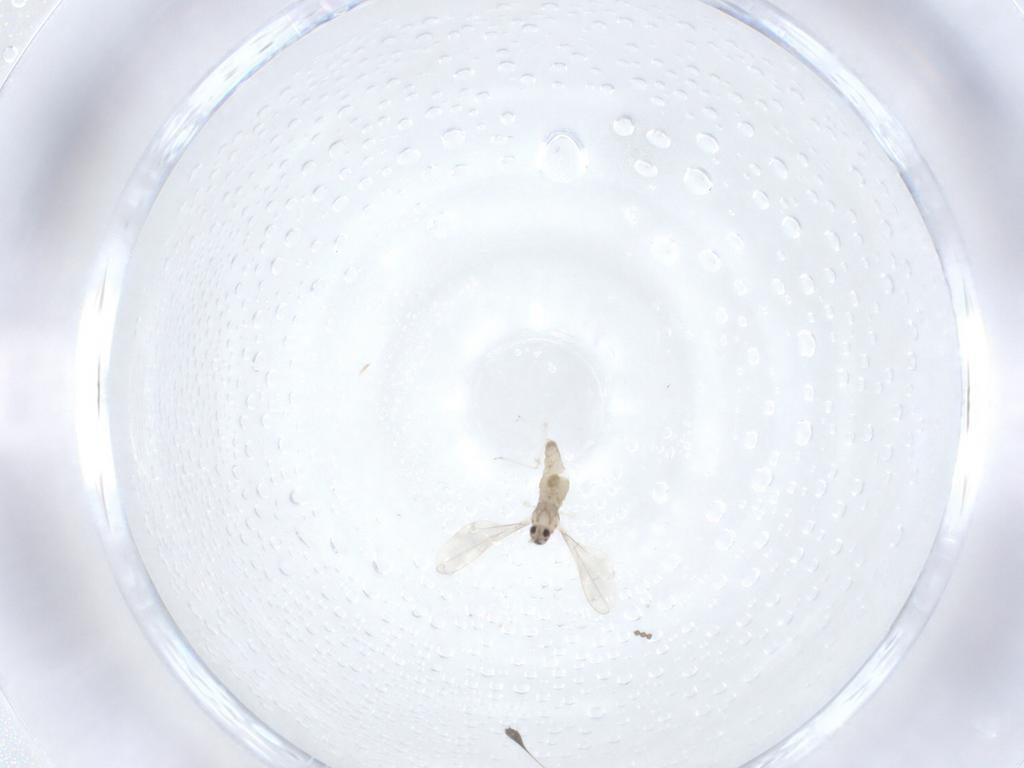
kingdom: Animalia
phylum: Arthropoda
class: Insecta
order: Diptera
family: Cecidomyiidae
